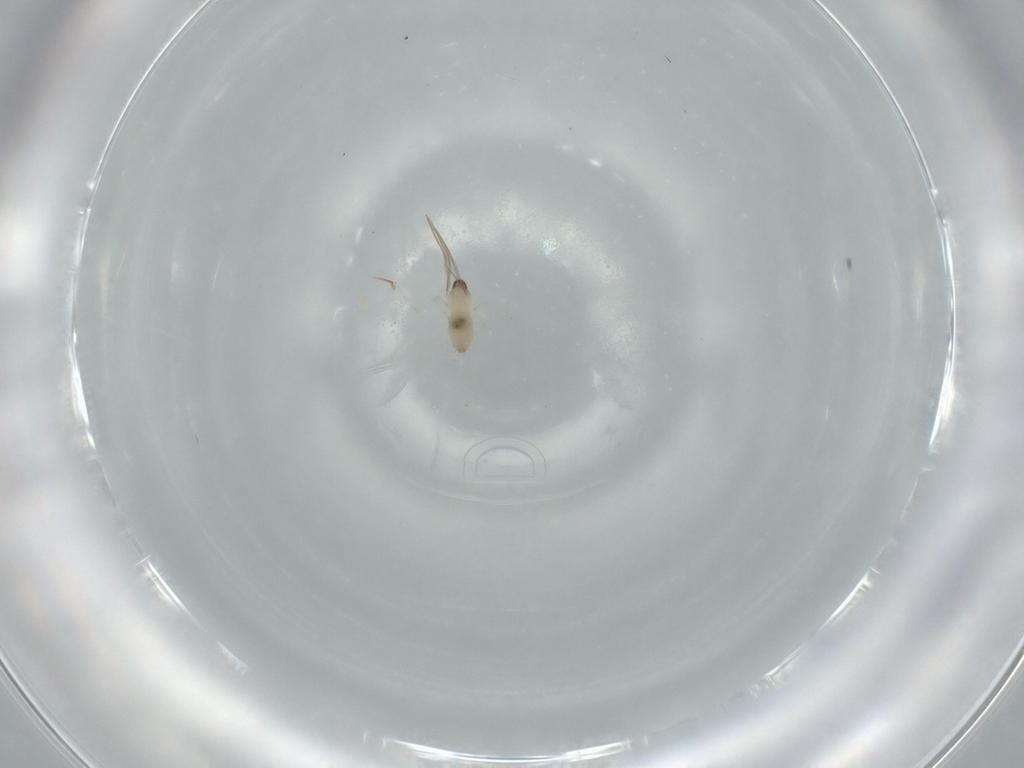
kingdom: Animalia
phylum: Arthropoda
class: Insecta
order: Diptera
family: Cecidomyiidae
